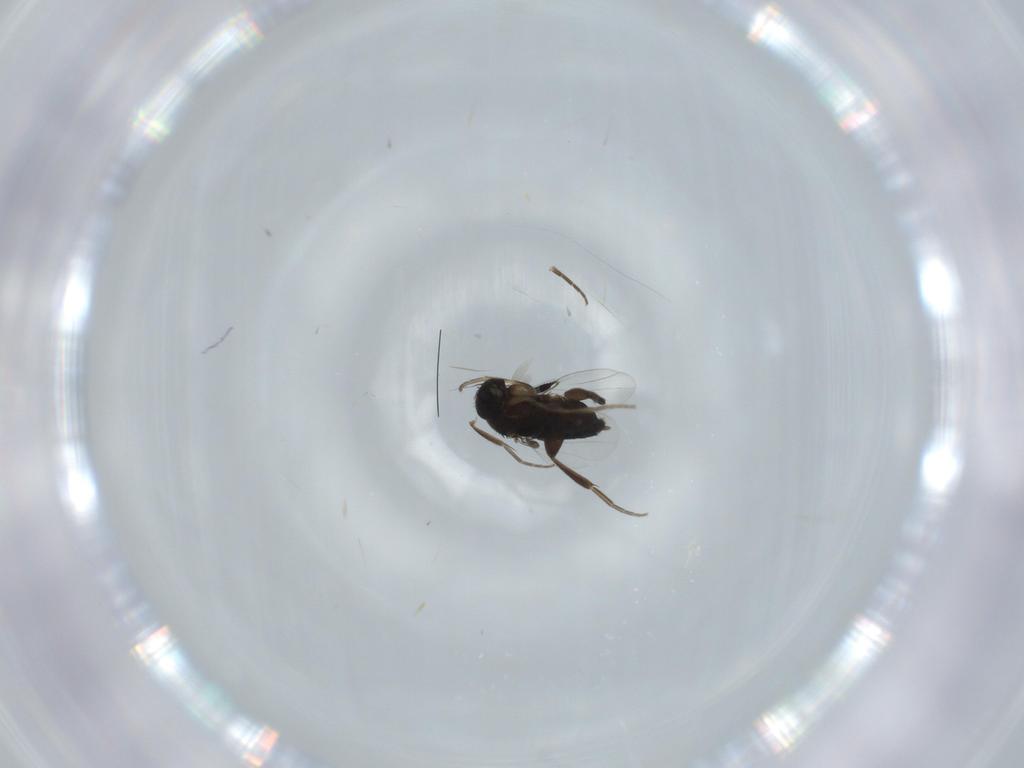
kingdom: Animalia
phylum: Arthropoda
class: Insecta
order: Diptera
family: Phoridae
